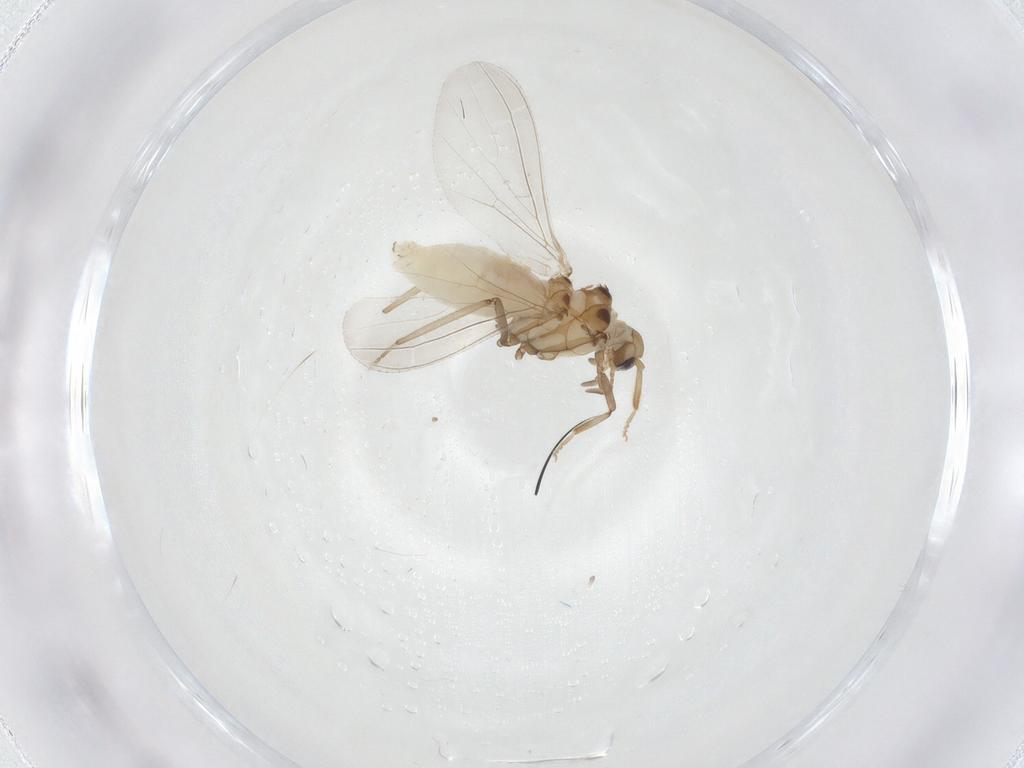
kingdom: Animalia
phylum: Arthropoda
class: Insecta
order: Neuroptera
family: Coniopterygidae
